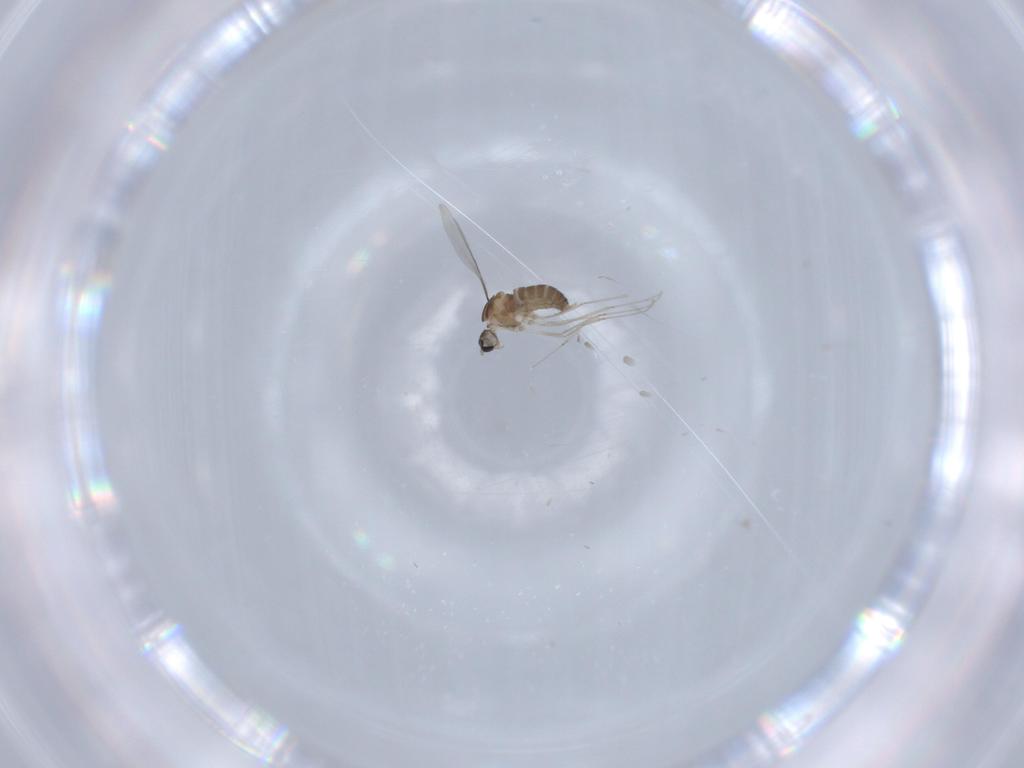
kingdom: Animalia
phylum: Arthropoda
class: Insecta
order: Diptera
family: Cecidomyiidae
